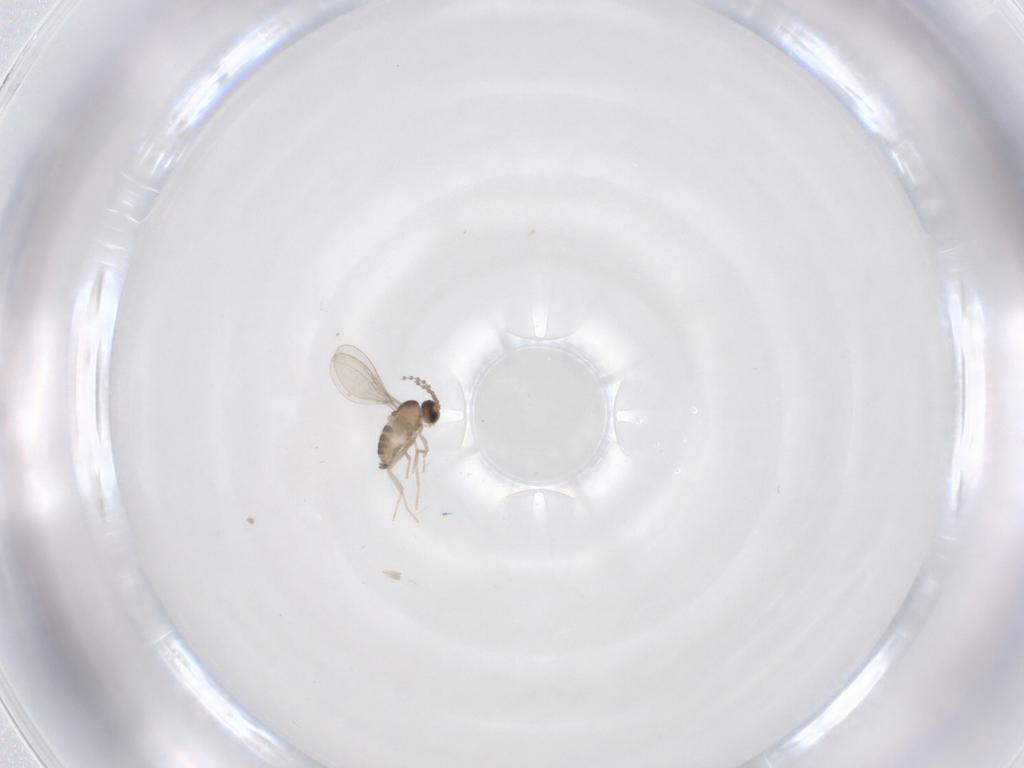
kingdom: Animalia
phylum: Arthropoda
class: Insecta
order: Diptera
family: Cecidomyiidae
